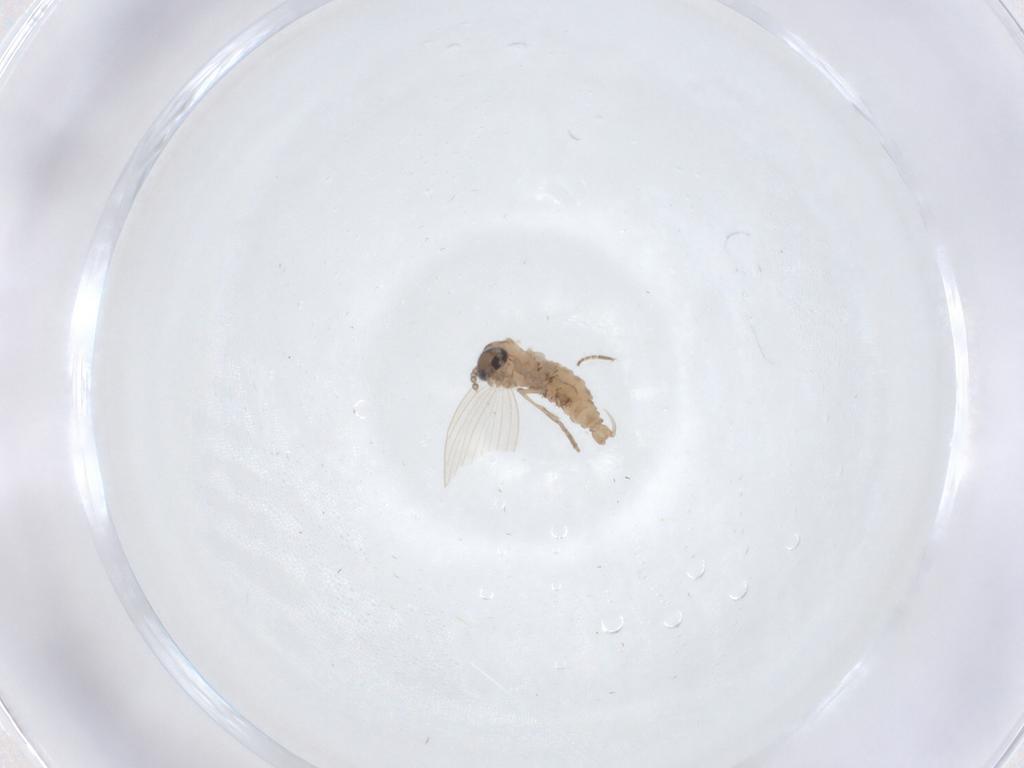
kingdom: Animalia
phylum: Arthropoda
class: Insecta
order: Diptera
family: Psychodidae
